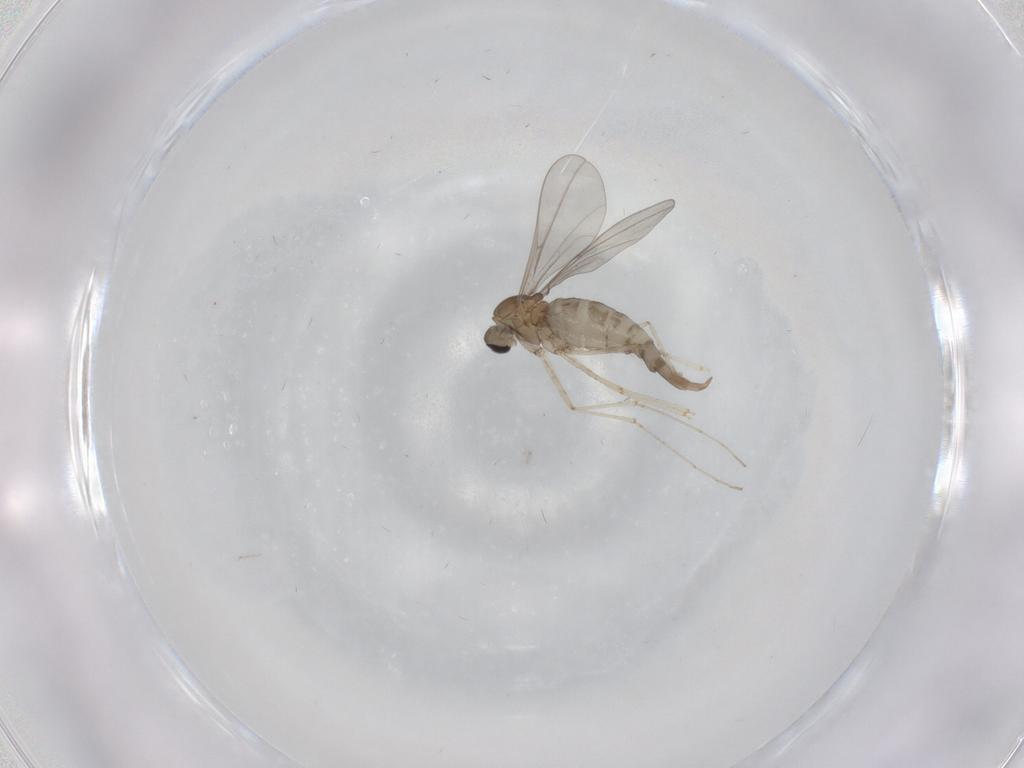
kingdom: Animalia
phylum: Arthropoda
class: Insecta
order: Diptera
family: Cecidomyiidae
